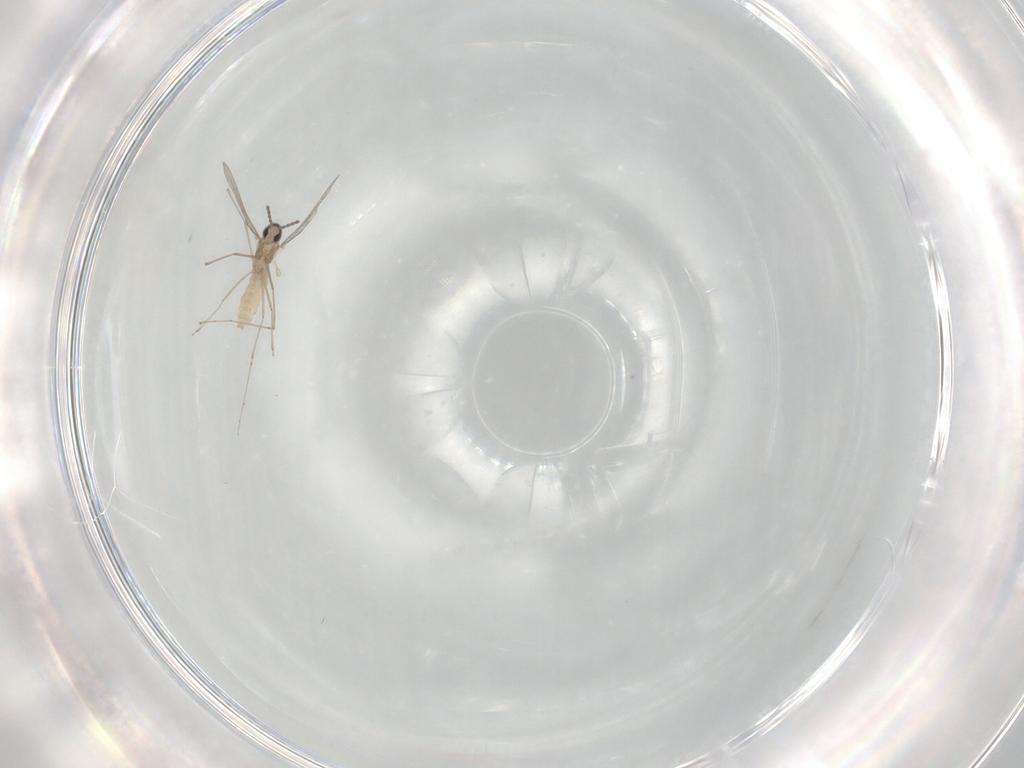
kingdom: Animalia
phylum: Arthropoda
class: Insecta
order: Diptera
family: Cecidomyiidae
